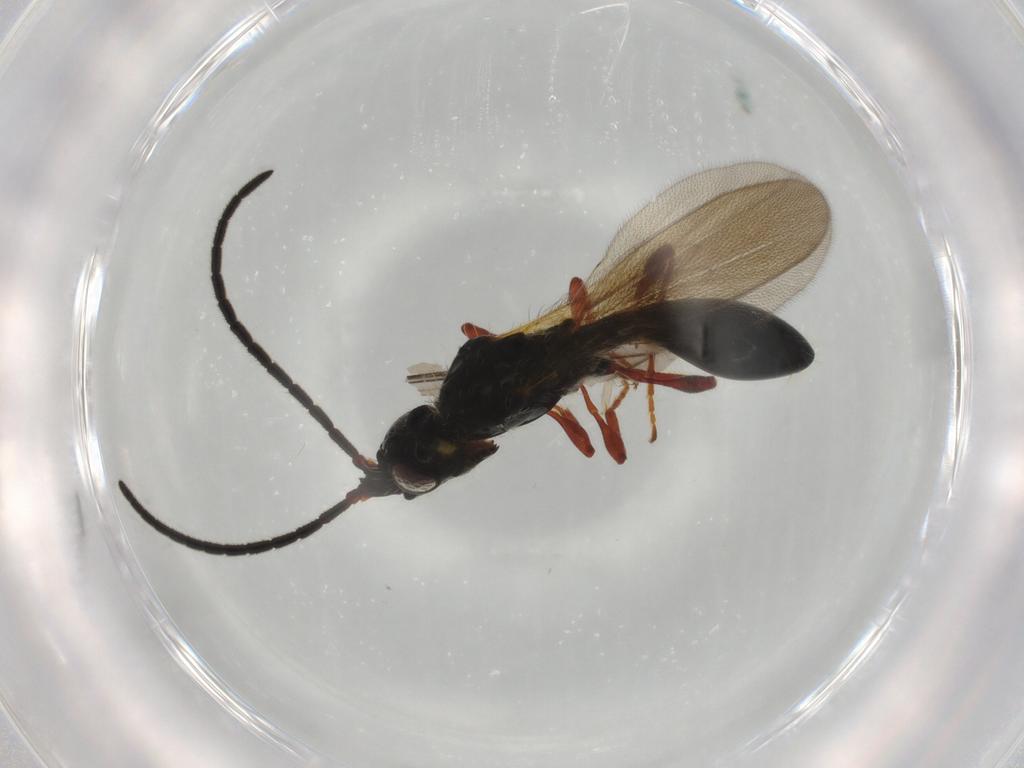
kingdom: Animalia
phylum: Arthropoda
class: Insecta
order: Hymenoptera
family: Diapriidae
